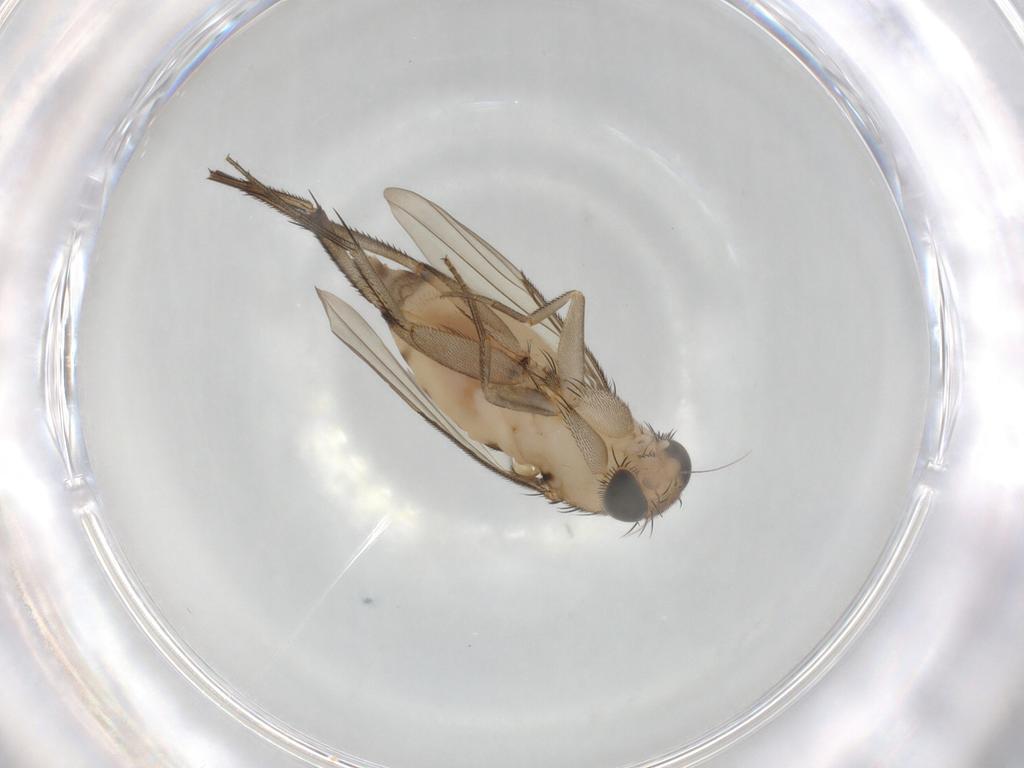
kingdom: Animalia
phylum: Arthropoda
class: Insecta
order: Diptera
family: Phoridae
